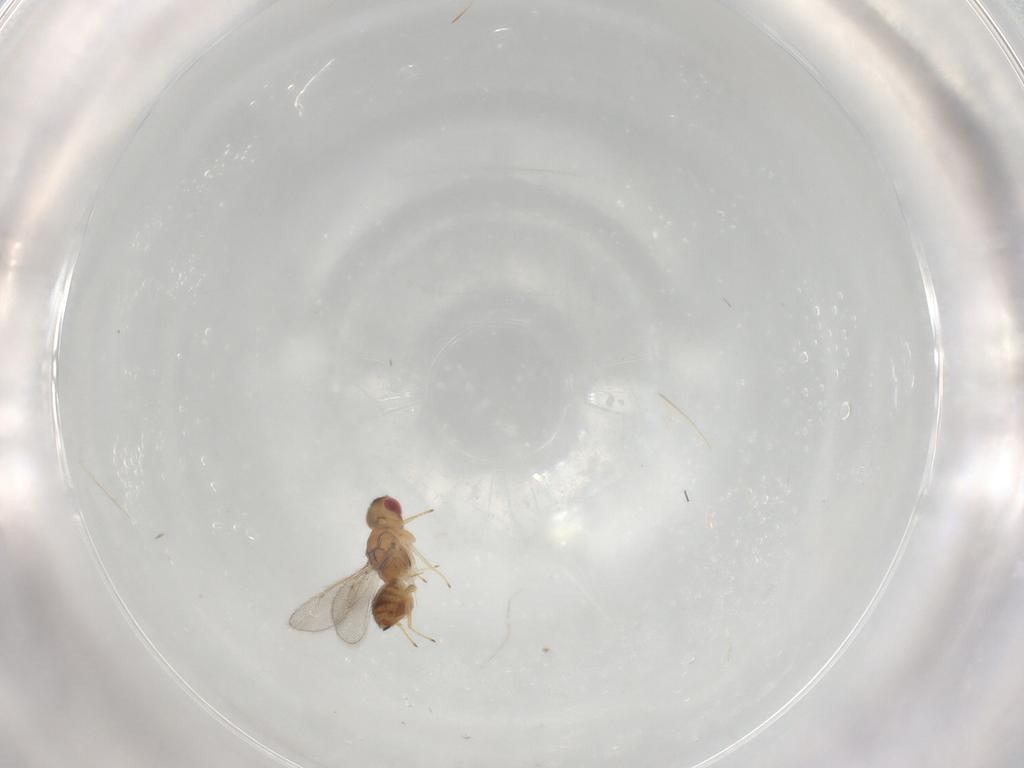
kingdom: Animalia
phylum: Arthropoda
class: Insecta
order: Hymenoptera
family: Eulophidae
